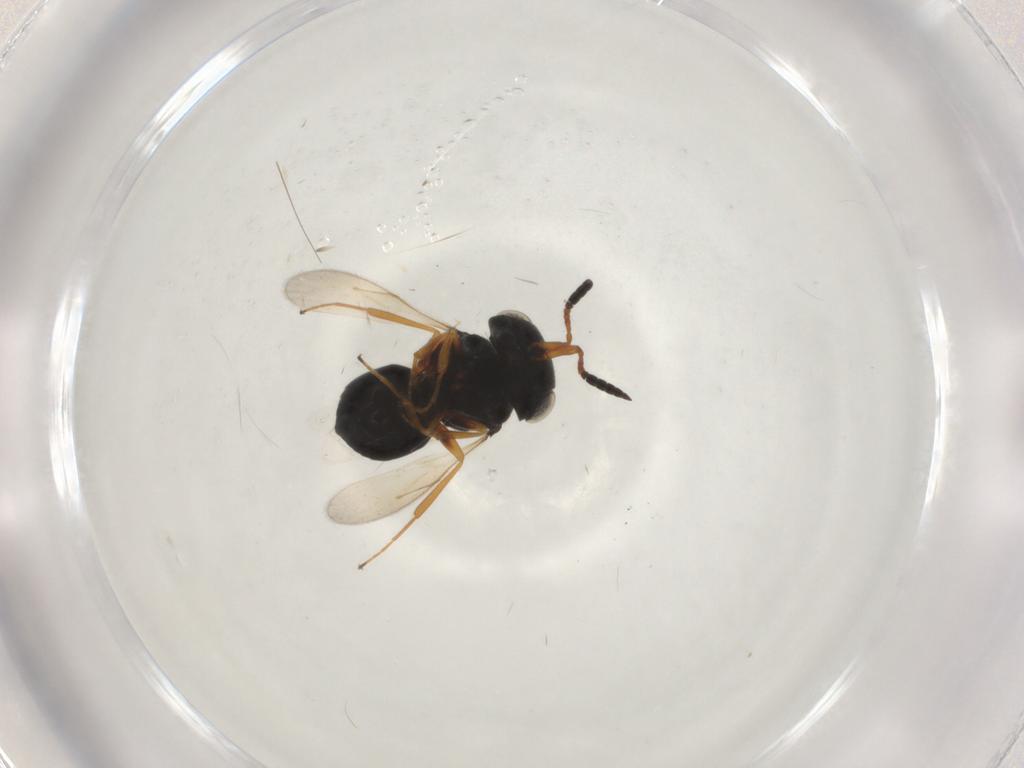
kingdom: Animalia
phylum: Arthropoda
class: Insecta
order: Hymenoptera
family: Scelionidae
